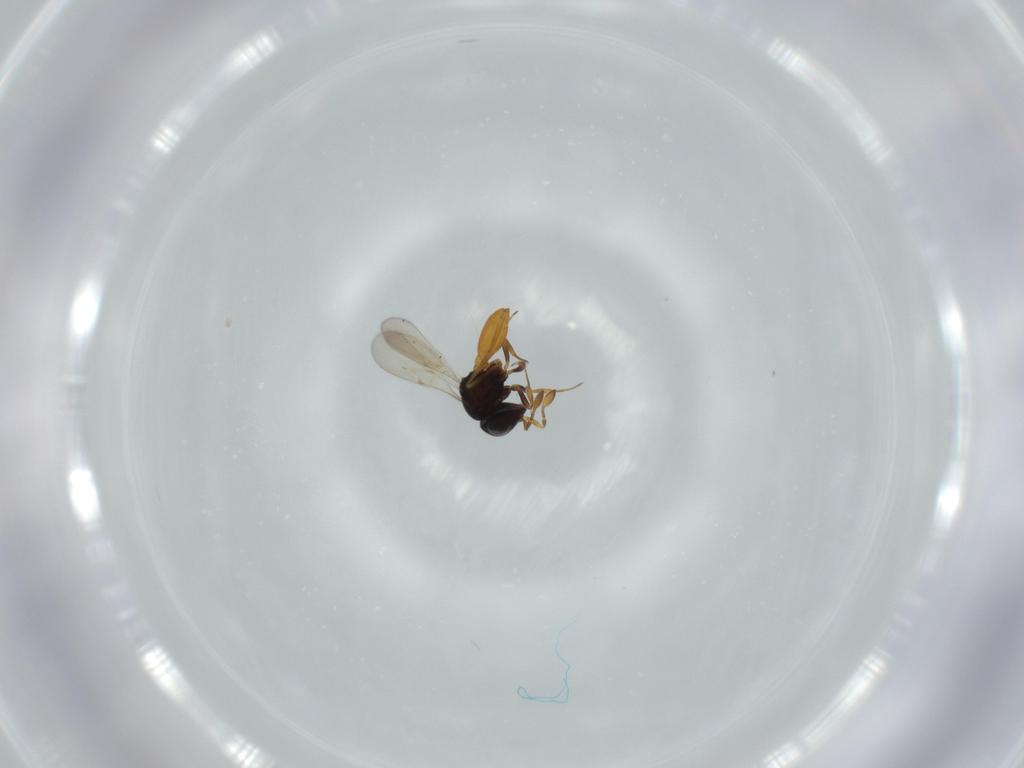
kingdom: Animalia
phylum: Arthropoda
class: Insecta
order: Hymenoptera
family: Scelionidae
